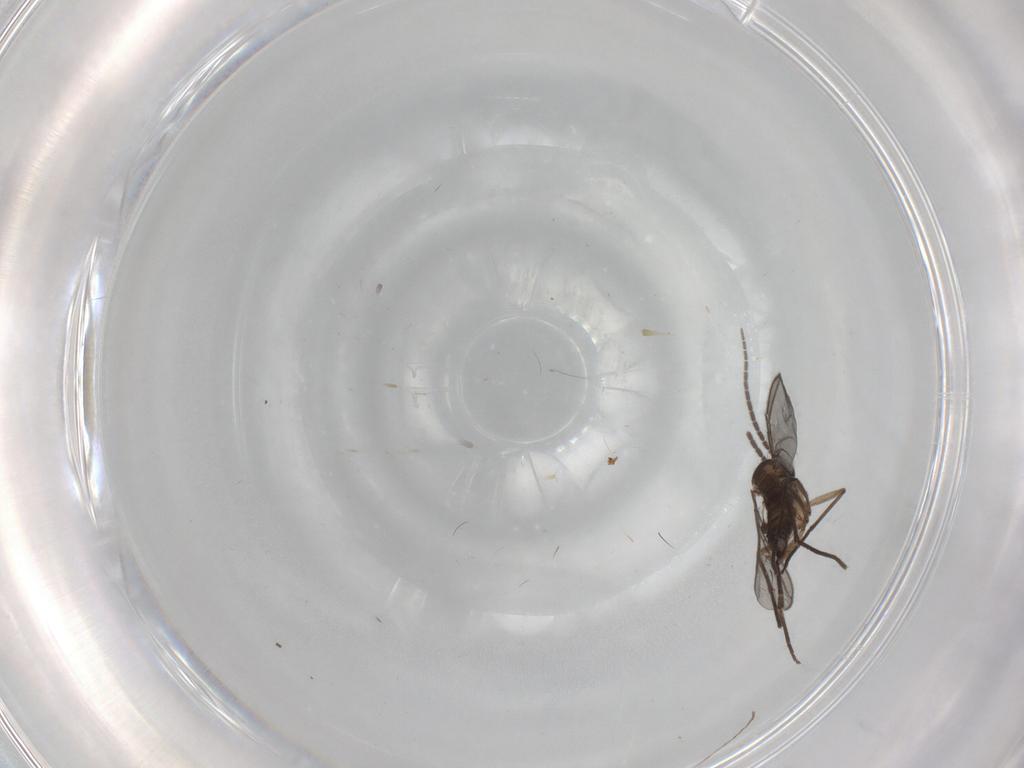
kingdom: Animalia
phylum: Arthropoda
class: Insecta
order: Diptera
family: Sciaridae
